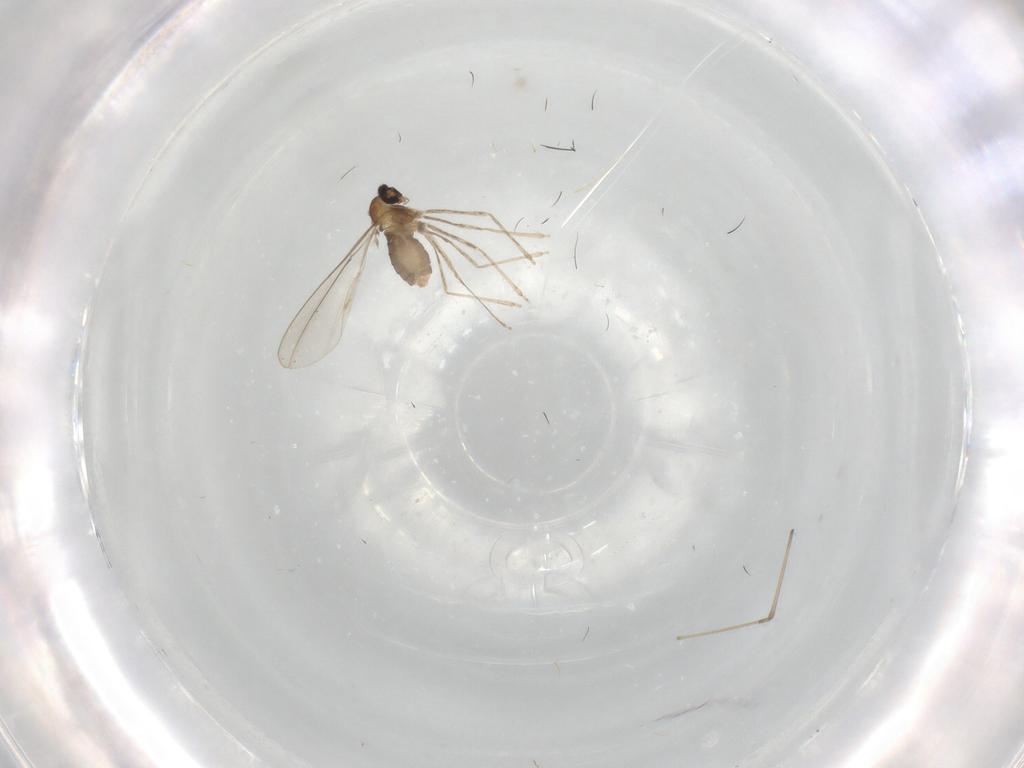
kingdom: Animalia
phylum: Arthropoda
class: Insecta
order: Diptera
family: Cecidomyiidae
